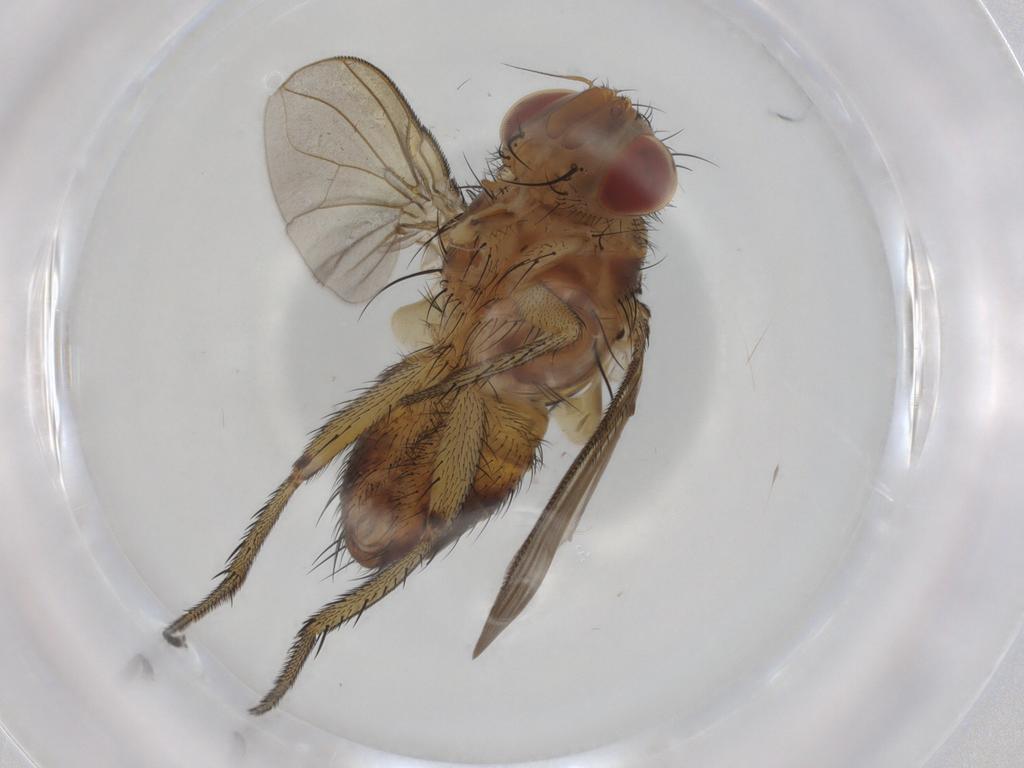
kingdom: Animalia
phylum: Arthropoda
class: Insecta
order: Diptera
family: Tachinidae
